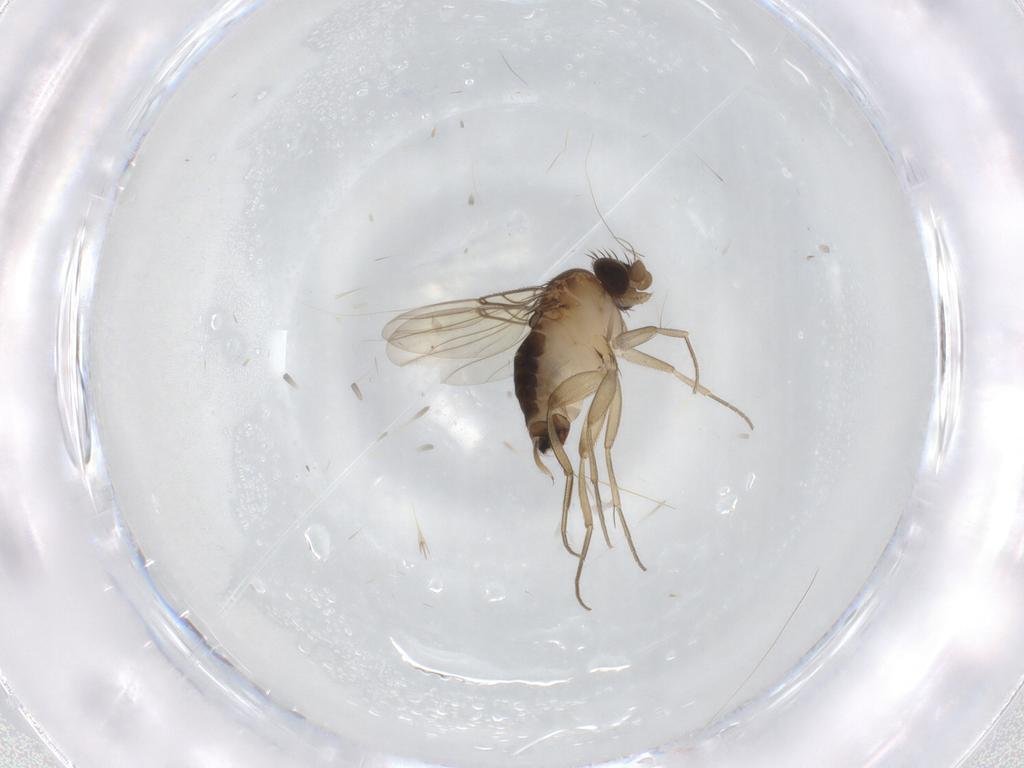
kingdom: Animalia
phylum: Arthropoda
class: Insecta
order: Diptera
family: Phoridae
